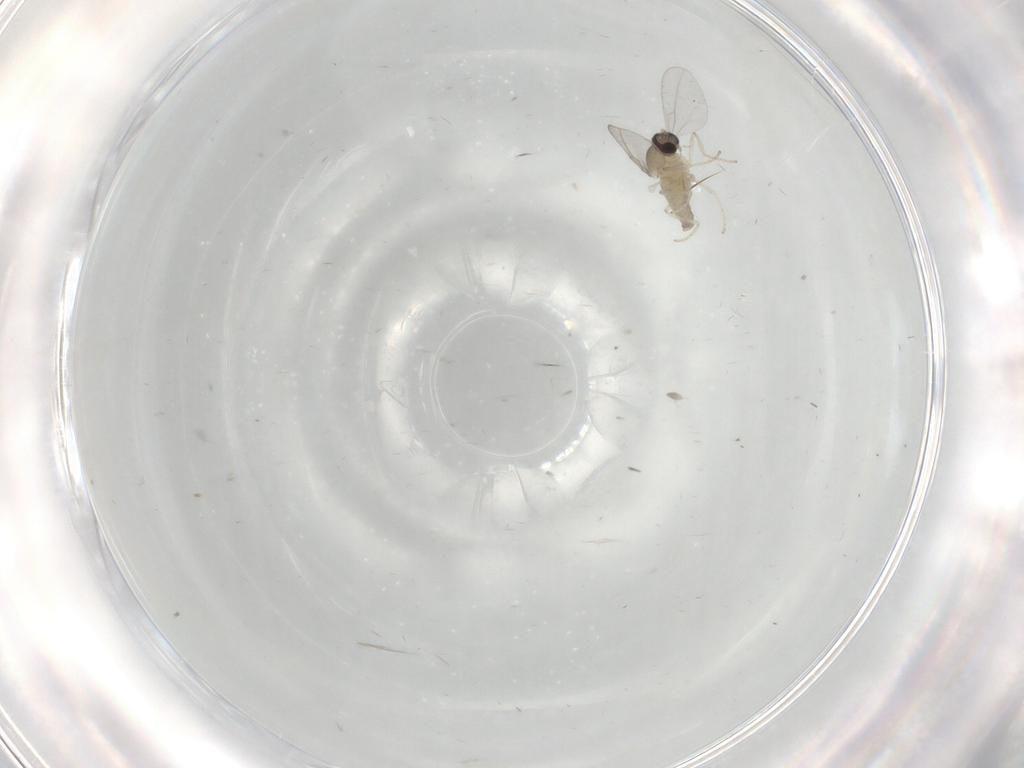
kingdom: Animalia
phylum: Arthropoda
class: Insecta
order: Diptera
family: Cecidomyiidae
